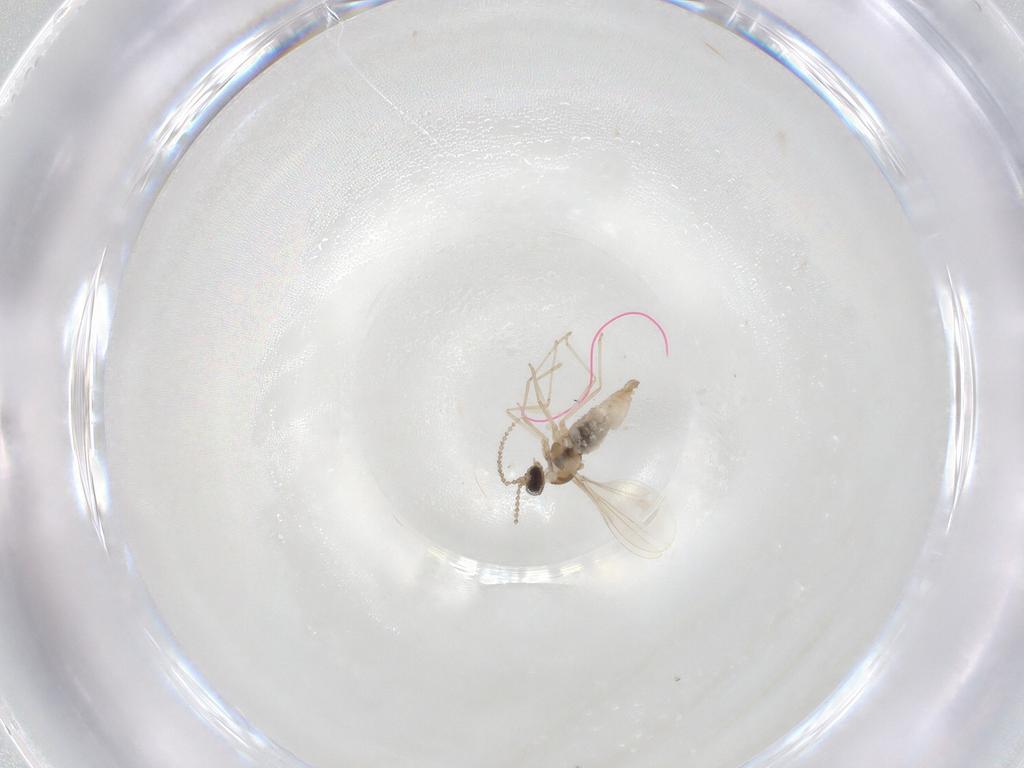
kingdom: Animalia
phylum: Arthropoda
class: Insecta
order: Diptera
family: Cecidomyiidae
